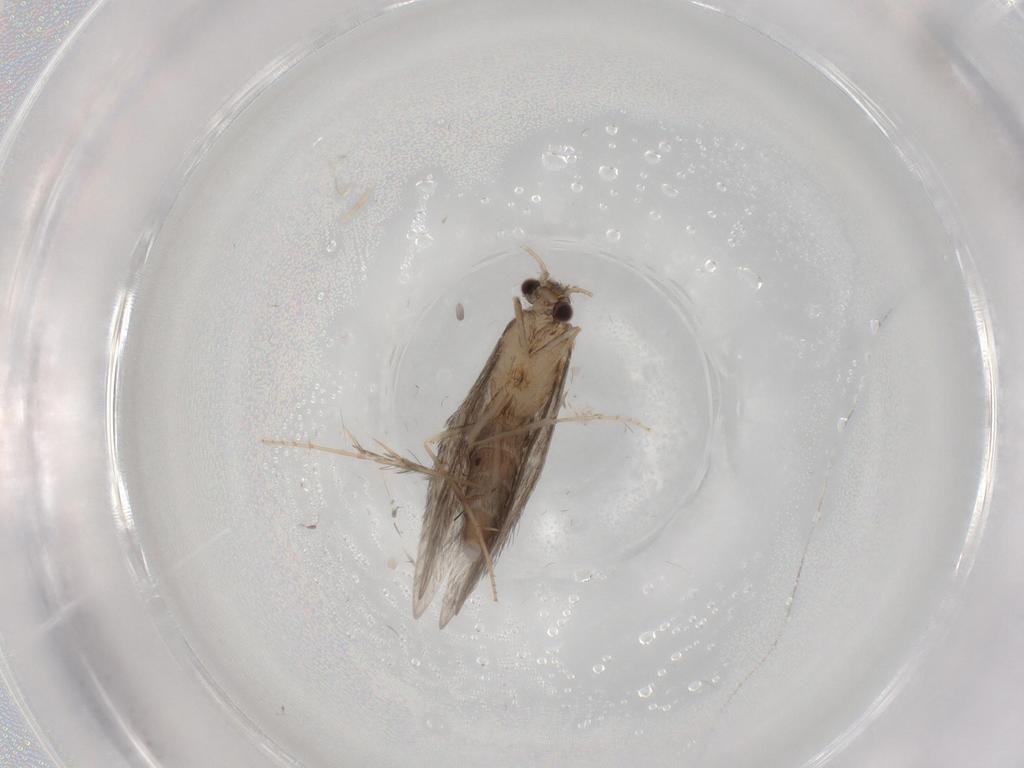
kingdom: Animalia
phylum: Arthropoda
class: Insecta
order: Trichoptera
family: Hydroptilidae
